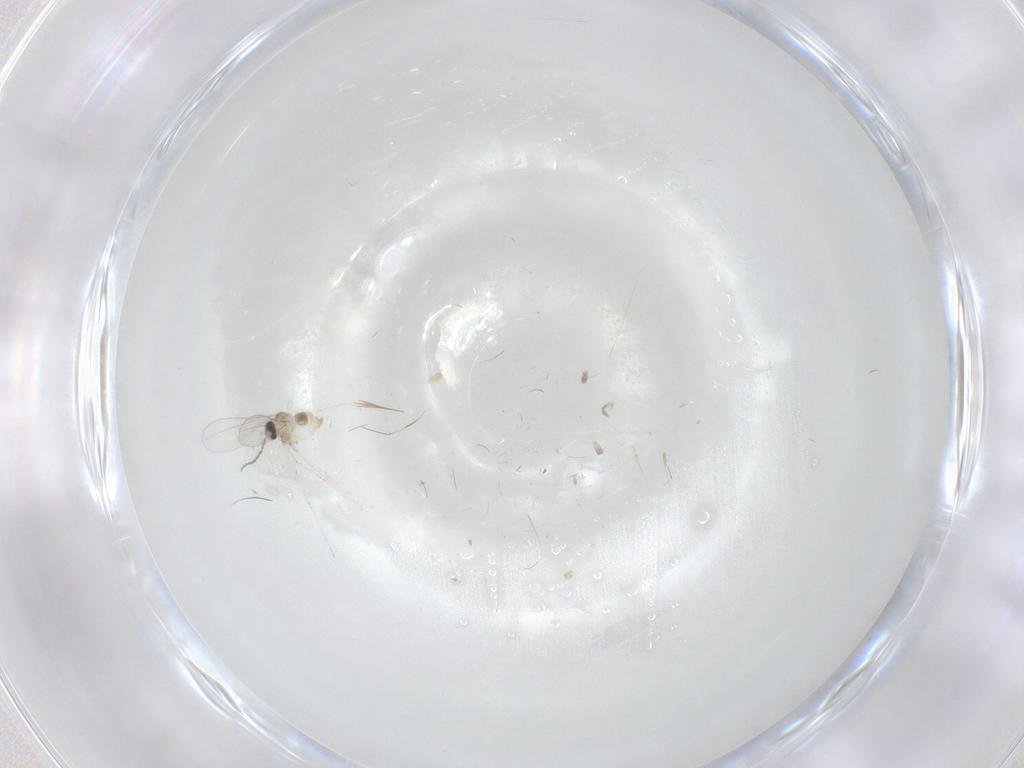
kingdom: Animalia
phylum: Arthropoda
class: Insecta
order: Diptera
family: Cecidomyiidae
